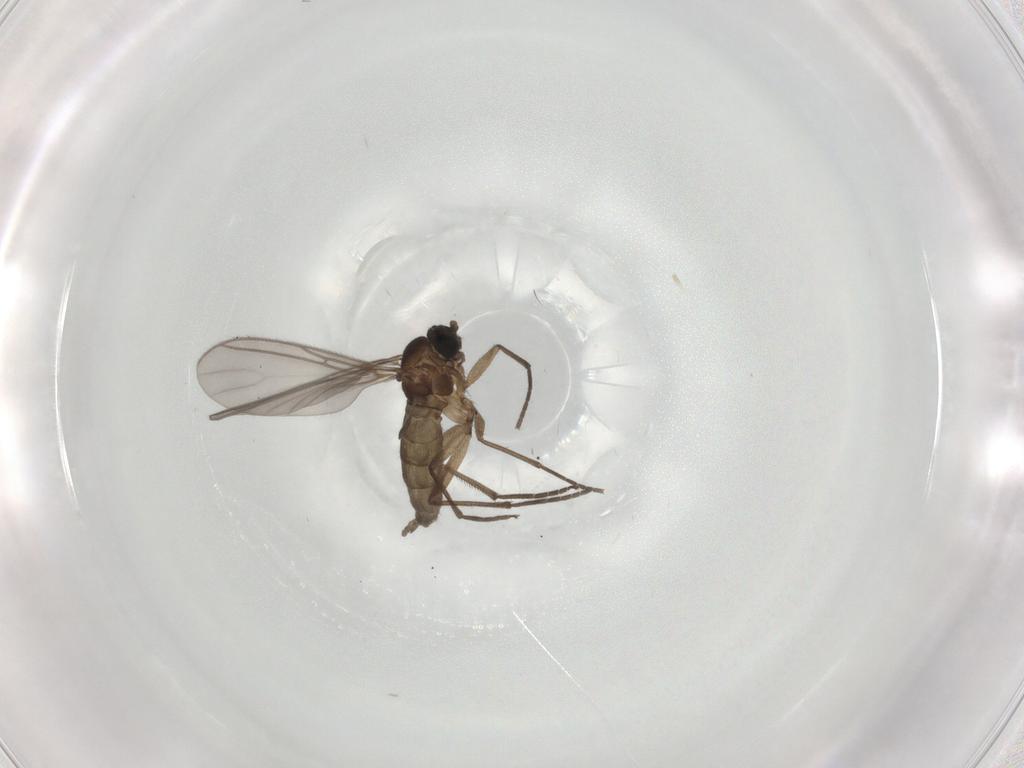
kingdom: Animalia
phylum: Arthropoda
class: Insecta
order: Diptera
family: Sciaridae
